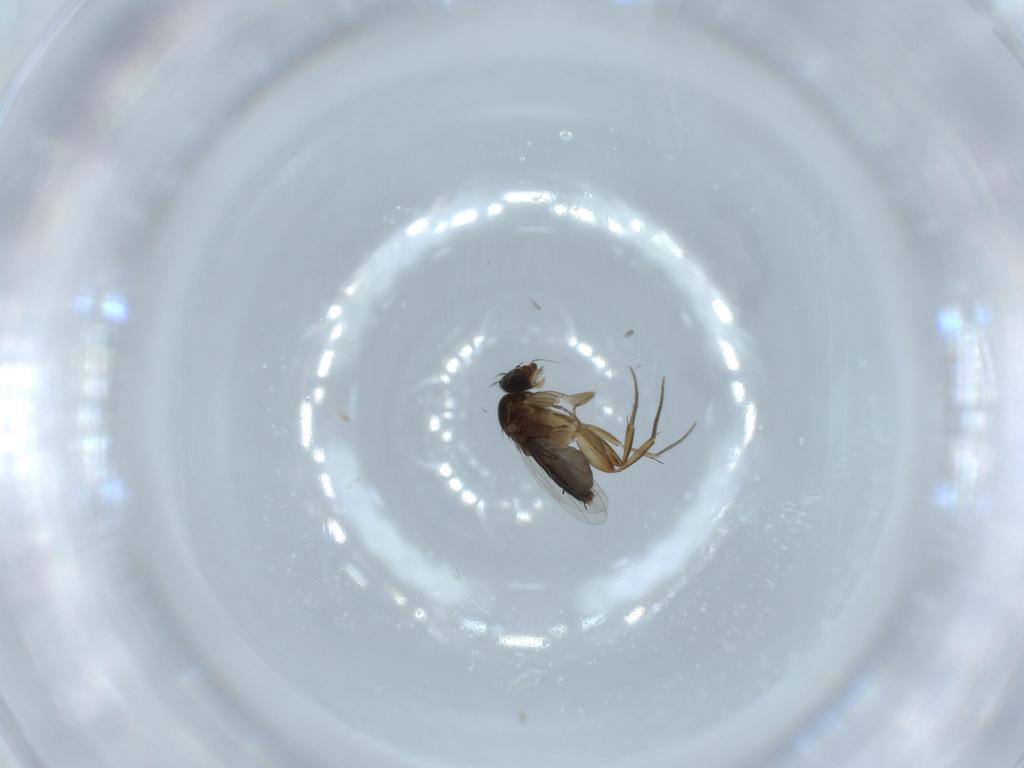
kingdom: Animalia
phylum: Arthropoda
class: Insecta
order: Diptera
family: Phoridae
